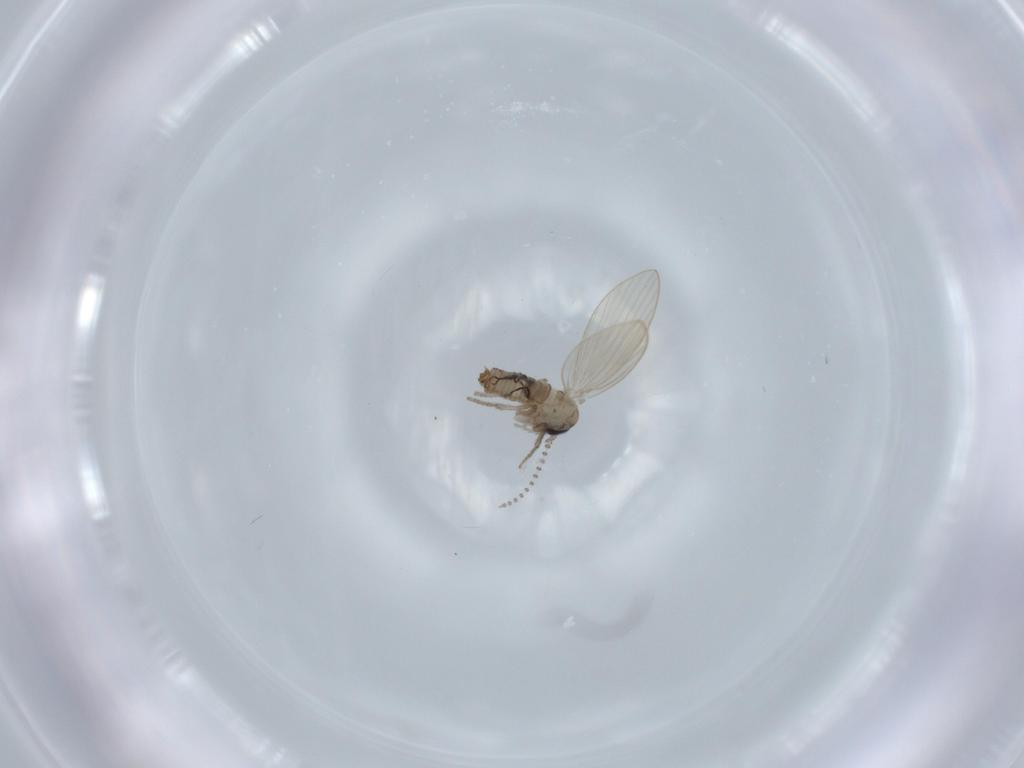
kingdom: Animalia
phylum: Arthropoda
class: Insecta
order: Diptera
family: Psychodidae
